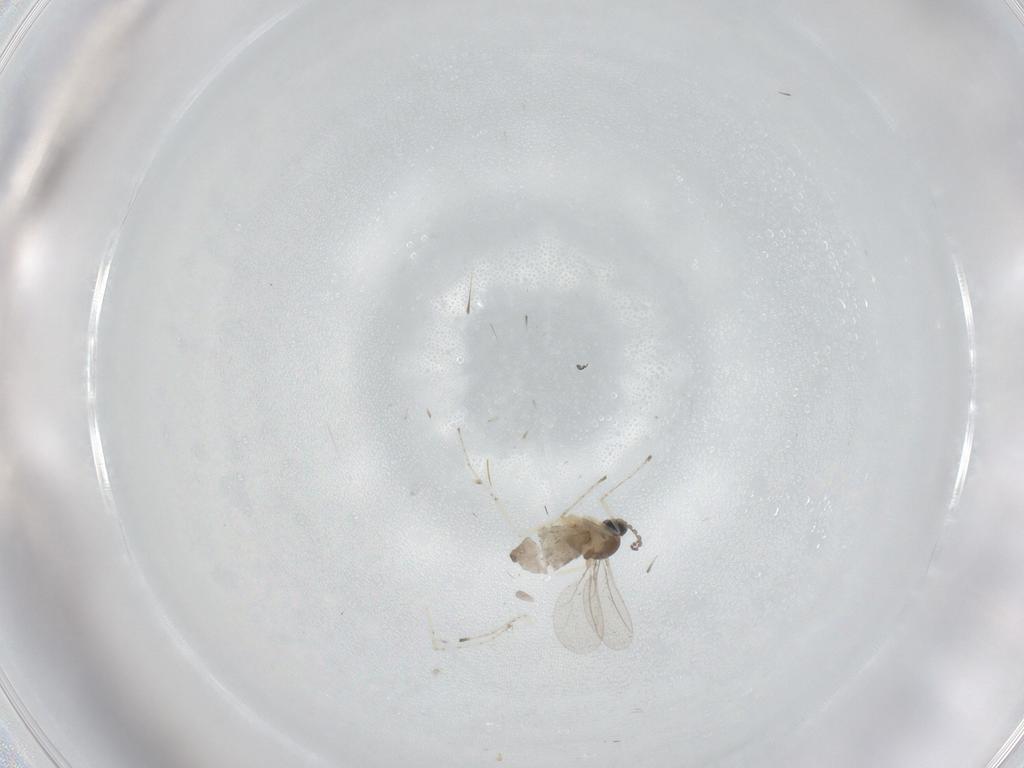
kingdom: Animalia
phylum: Arthropoda
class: Insecta
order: Diptera
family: Cecidomyiidae
